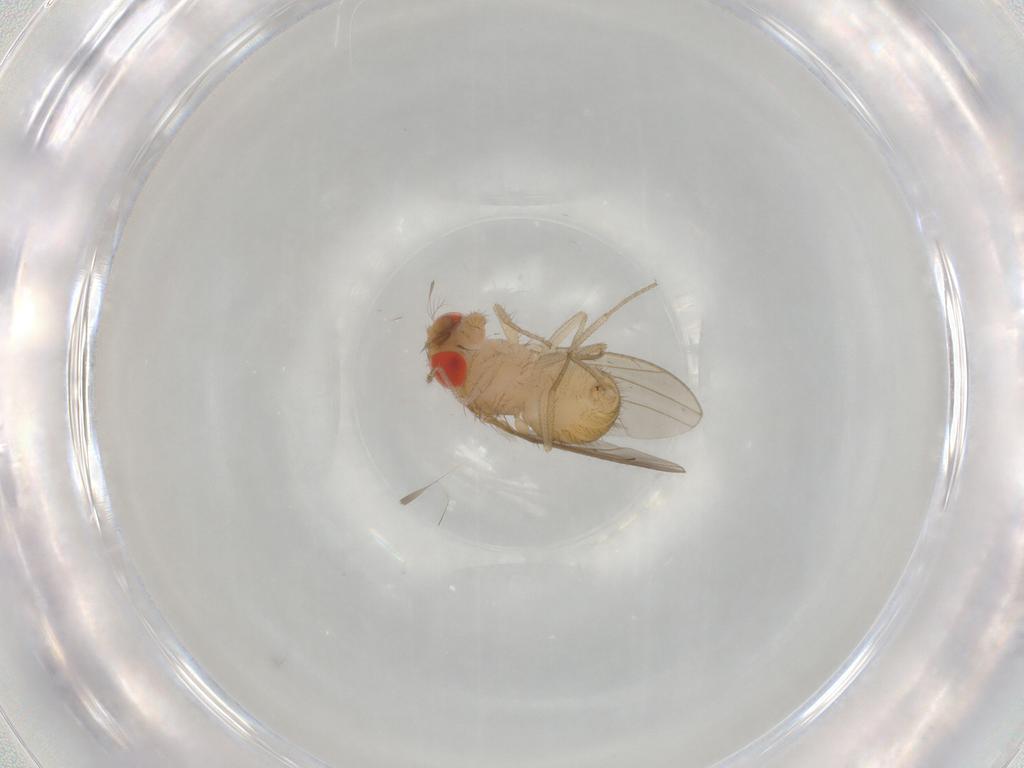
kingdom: Animalia
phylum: Arthropoda
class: Insecta
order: Diptera
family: Drosophilidae
